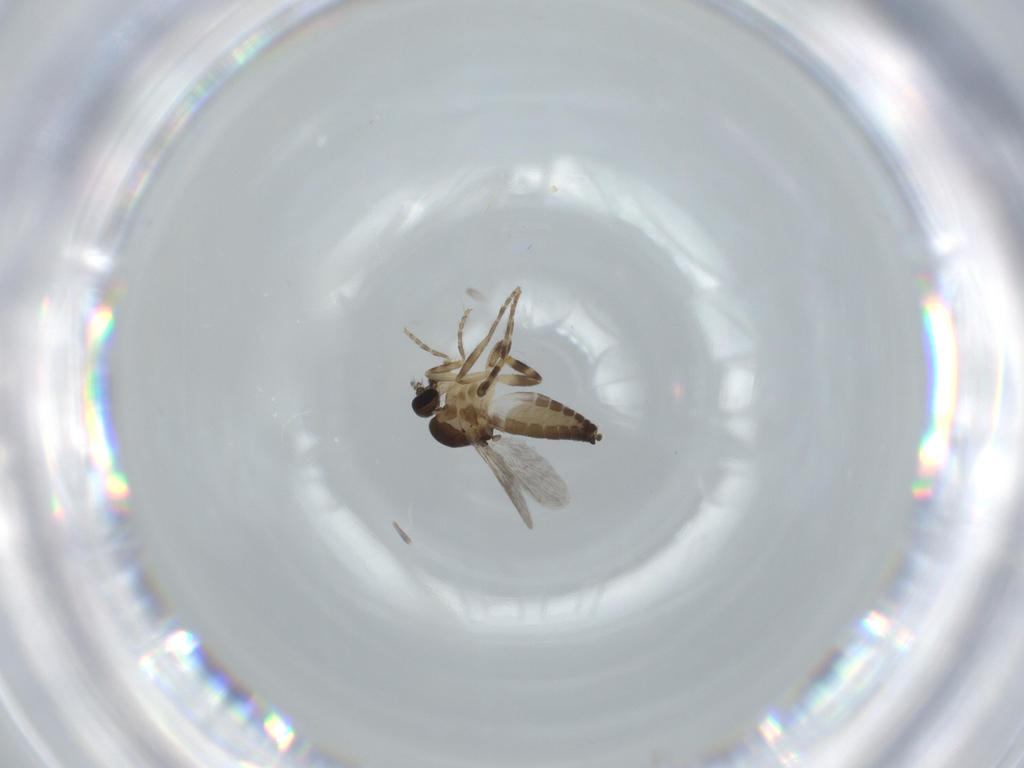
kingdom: Animalia
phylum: Arthropoda
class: Insecta
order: Diptera
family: Ceratopogonidae
